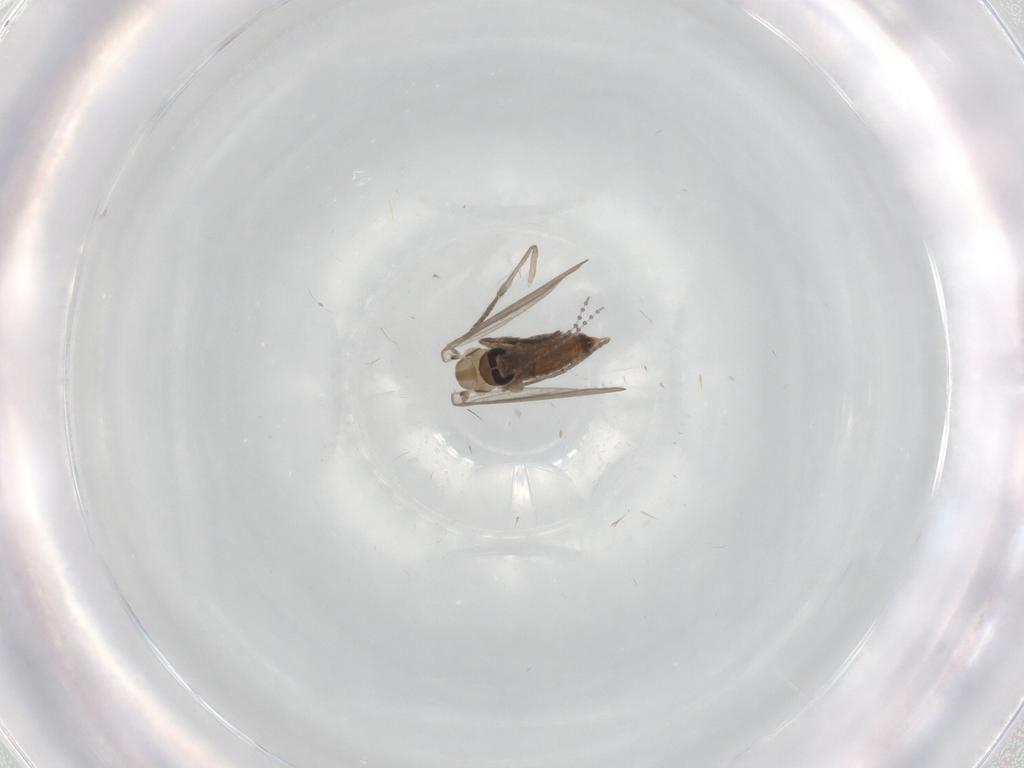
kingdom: Animalia
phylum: Arthropoda
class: Insecta
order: Diptera
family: Psychodidae
